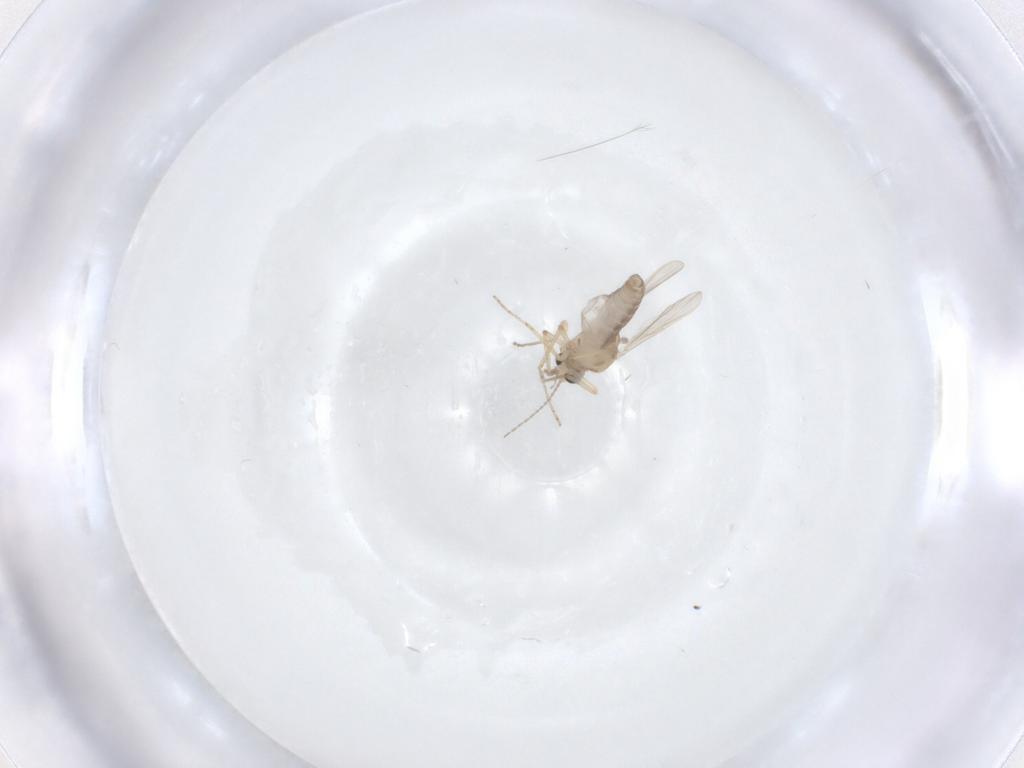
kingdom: Animalia
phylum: Arthropoda
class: Insecta
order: Diptera
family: Ceratopogonidae
